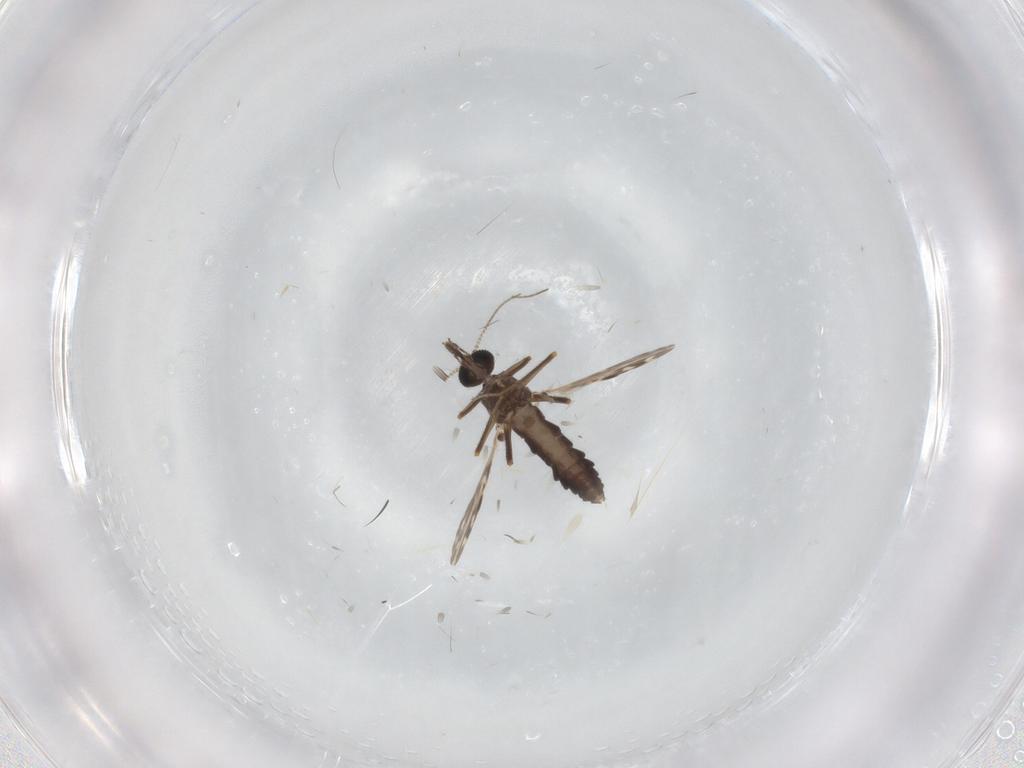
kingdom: Animalia
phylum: Arthropoda
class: Insecta
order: Diptera
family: Ceratopogonidae
